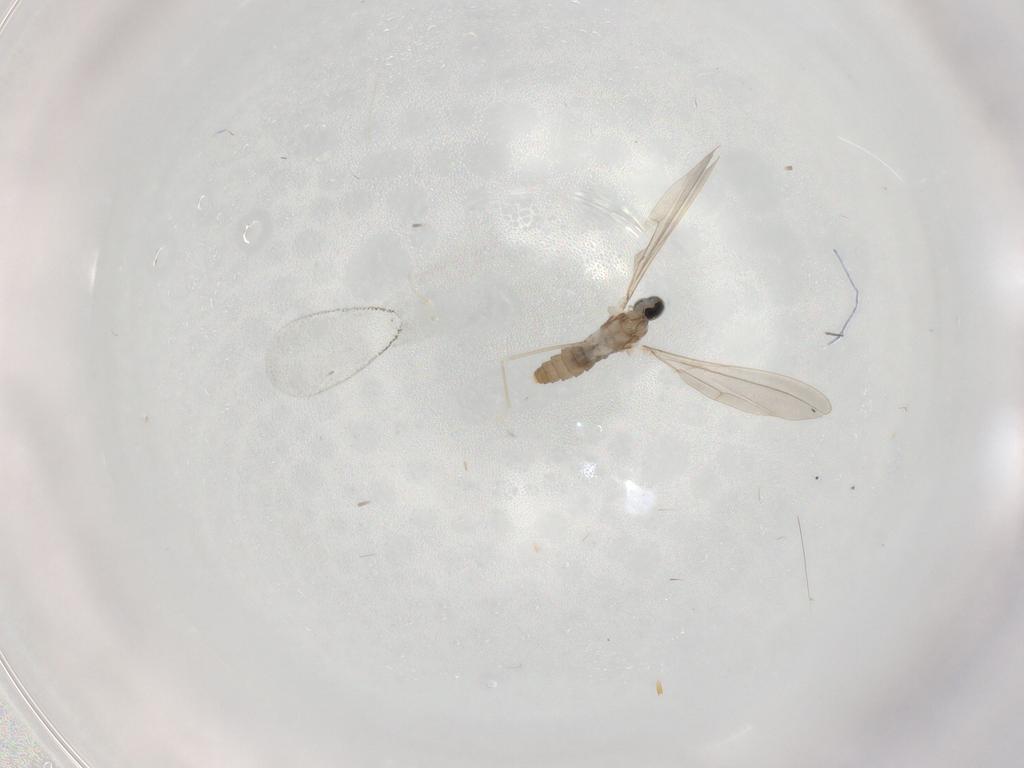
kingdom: Animalia
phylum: Arthropoda
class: Insecta
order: Diptera
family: Cecidomyiidae
